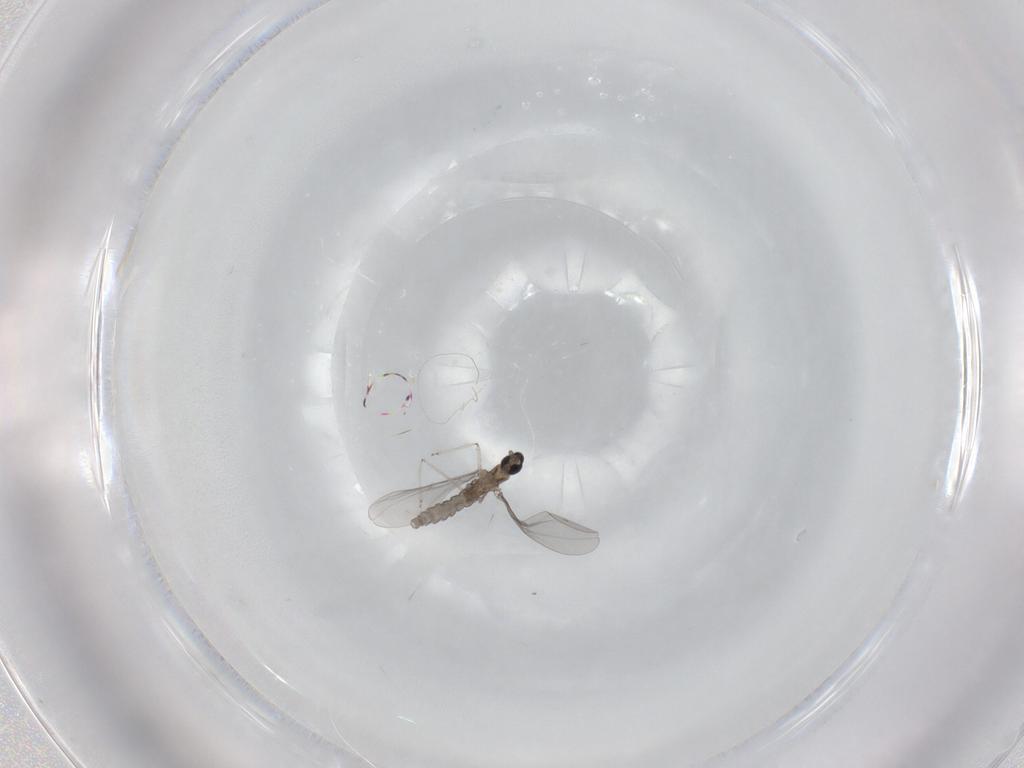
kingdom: Animalia
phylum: Arthropoda
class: Insecta
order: Diptera
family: Cecidomyiidae
